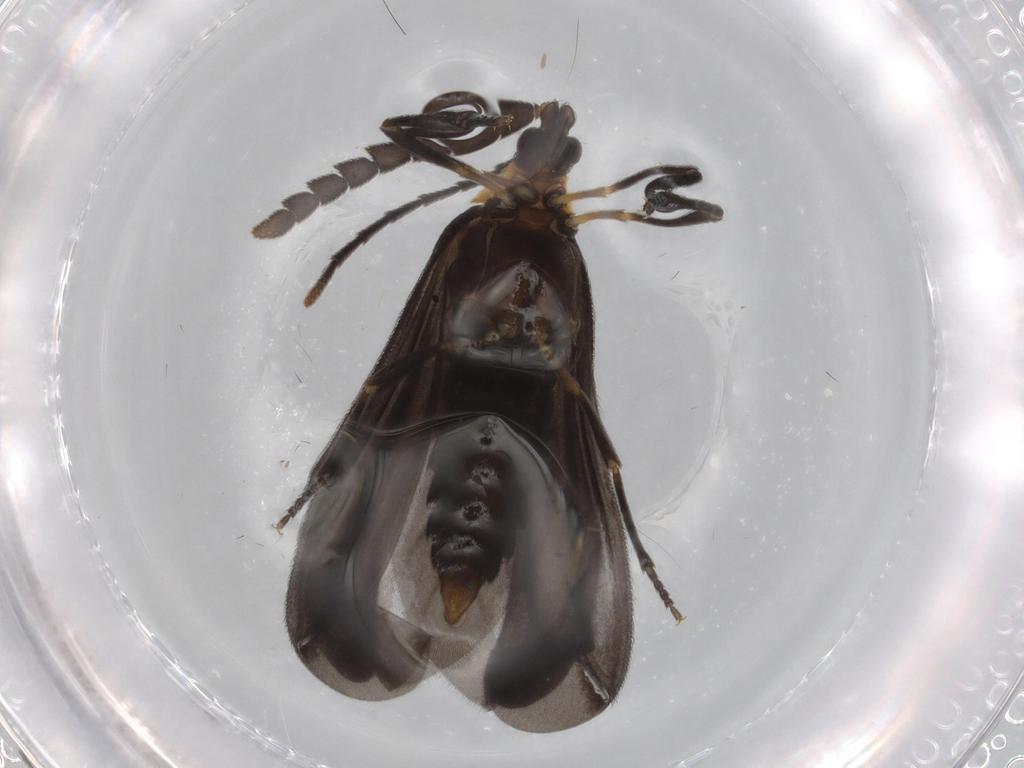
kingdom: Animalia
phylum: Arthropoda
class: Insecta
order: Coleoptera
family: Lycidae
